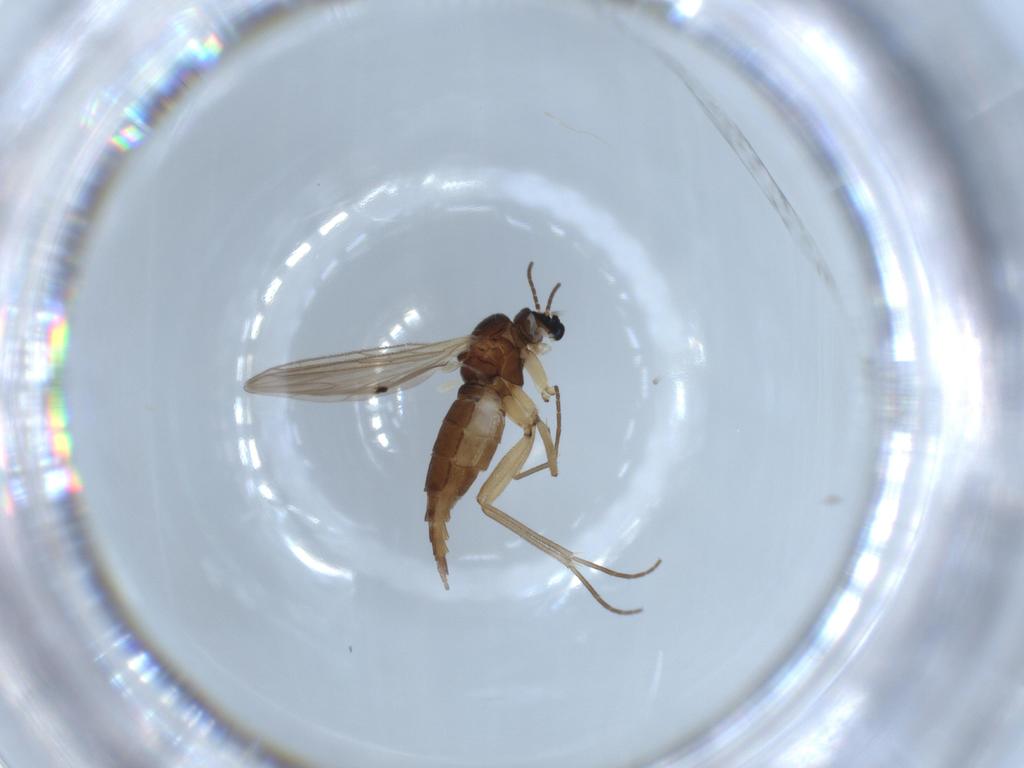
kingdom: Animalia
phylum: Arthropoda
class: Insecta
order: Diptera
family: Sciaridae
